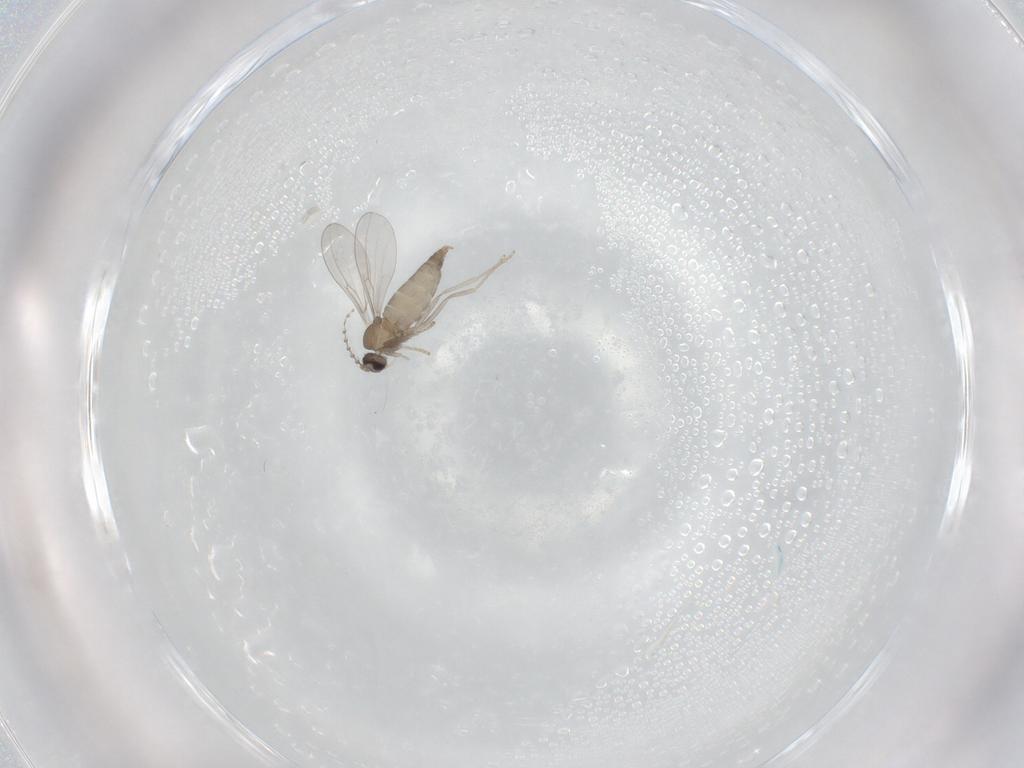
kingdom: Animalia
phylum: Arthropoda
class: Insecta
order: Diptera
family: Cecidomyiidae
